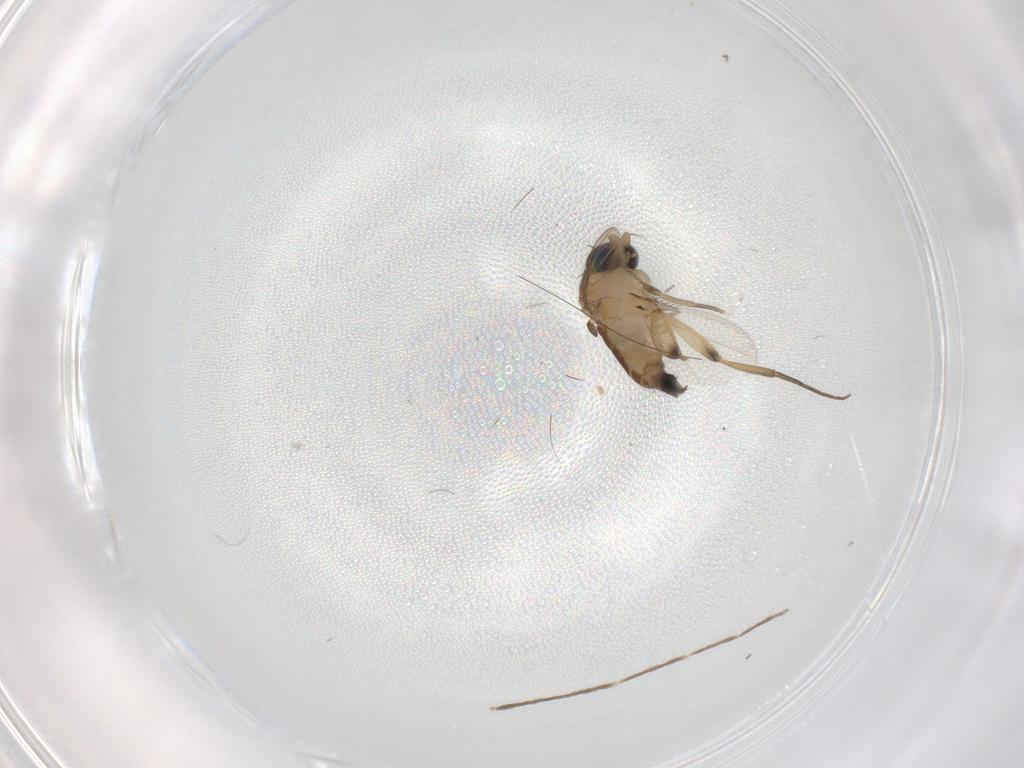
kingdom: Animalia
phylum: Arthropoda
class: Insecta
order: Diptera
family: Phoridae
